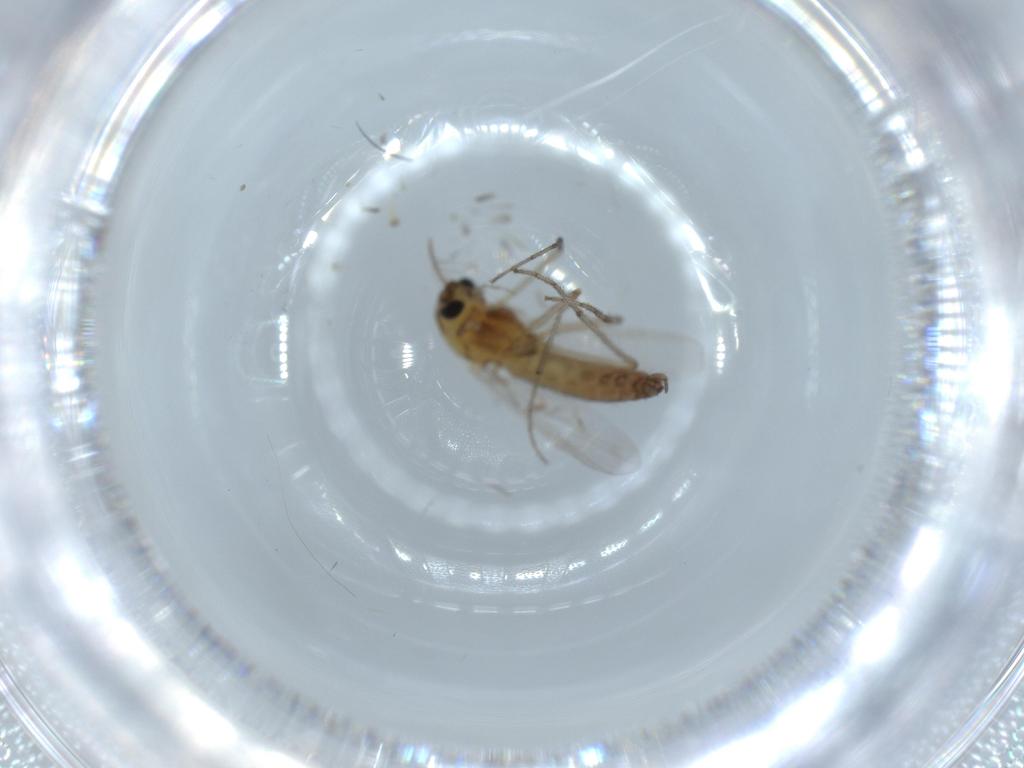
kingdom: Animalia
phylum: Arthropoda
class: Insecta
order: Diptera
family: Chironomidae
